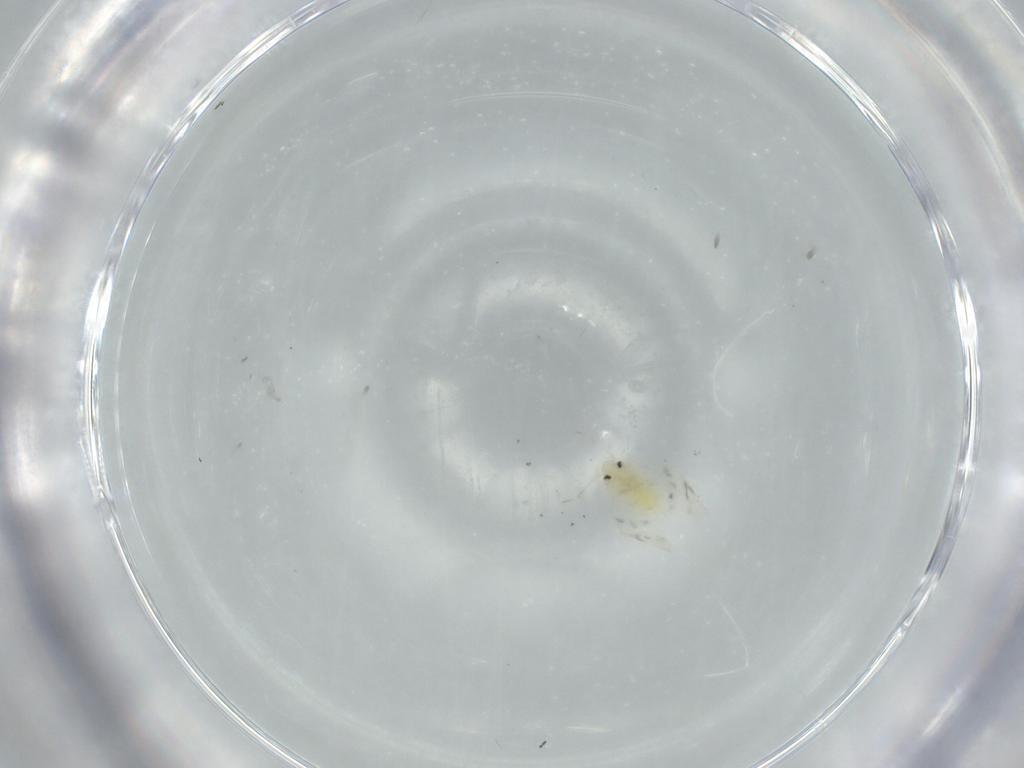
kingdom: Animalia
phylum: Arthropoda
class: Insecta
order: Hemiptera
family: Aleyrodidae
